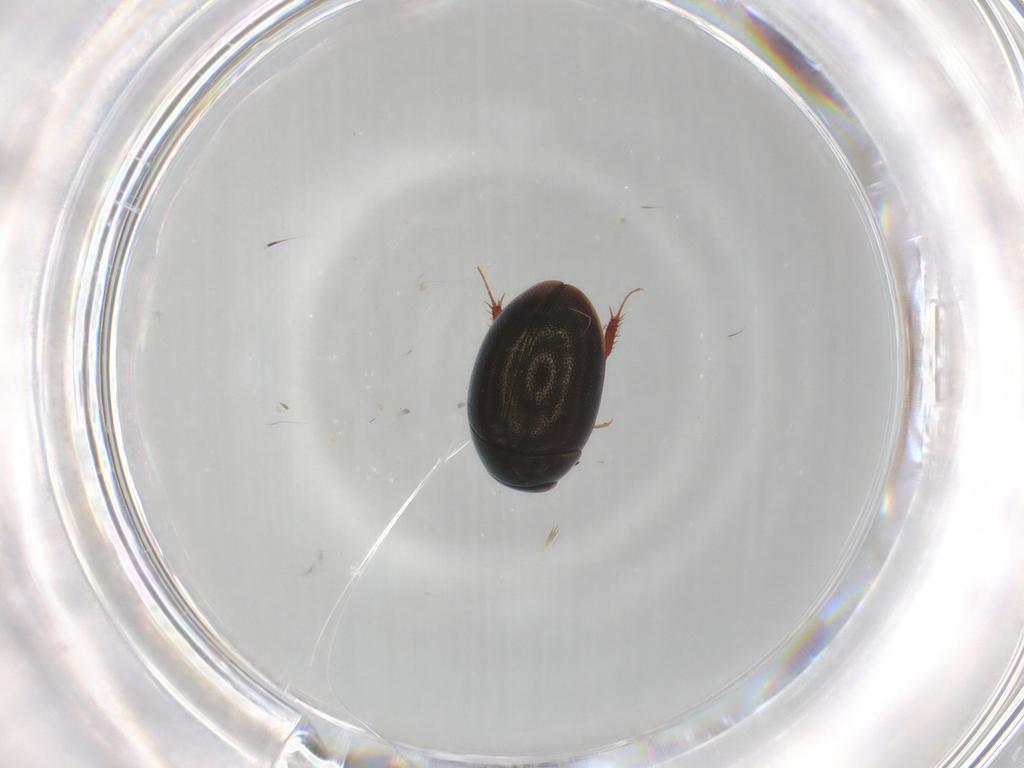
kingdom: Animalia
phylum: Arthropoda
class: Insecta
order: Coleoptera
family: Hydrophilidae
